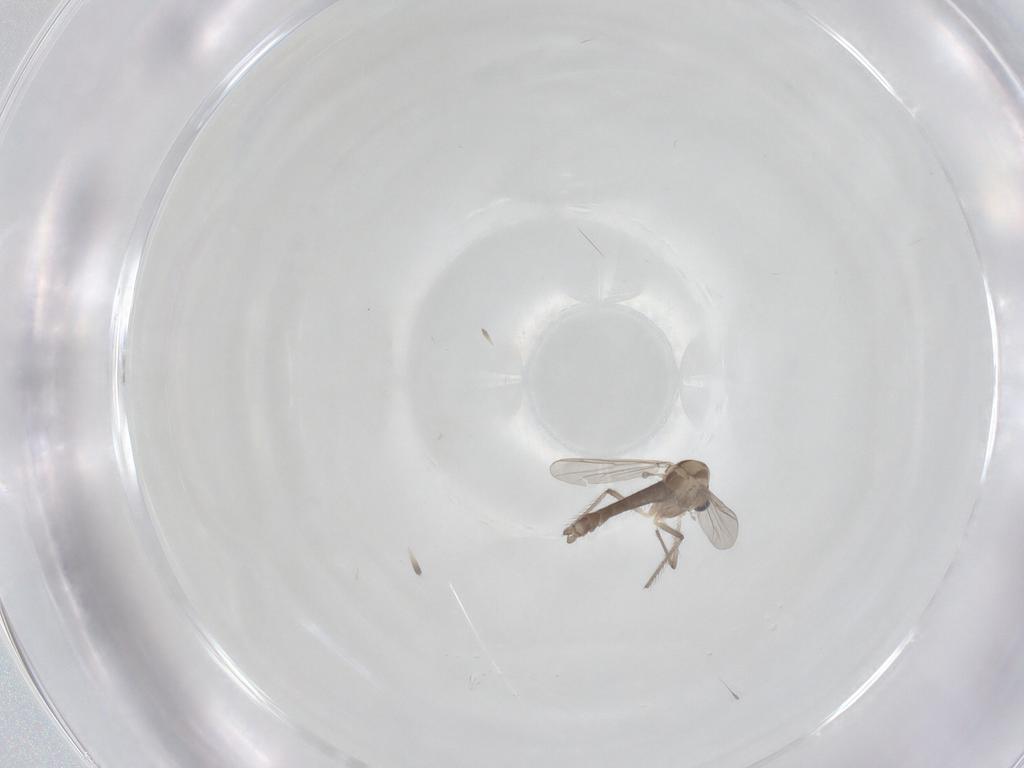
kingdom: Animalia
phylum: Arthropoda
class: Insecta
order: Diptera
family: Chironomidae
